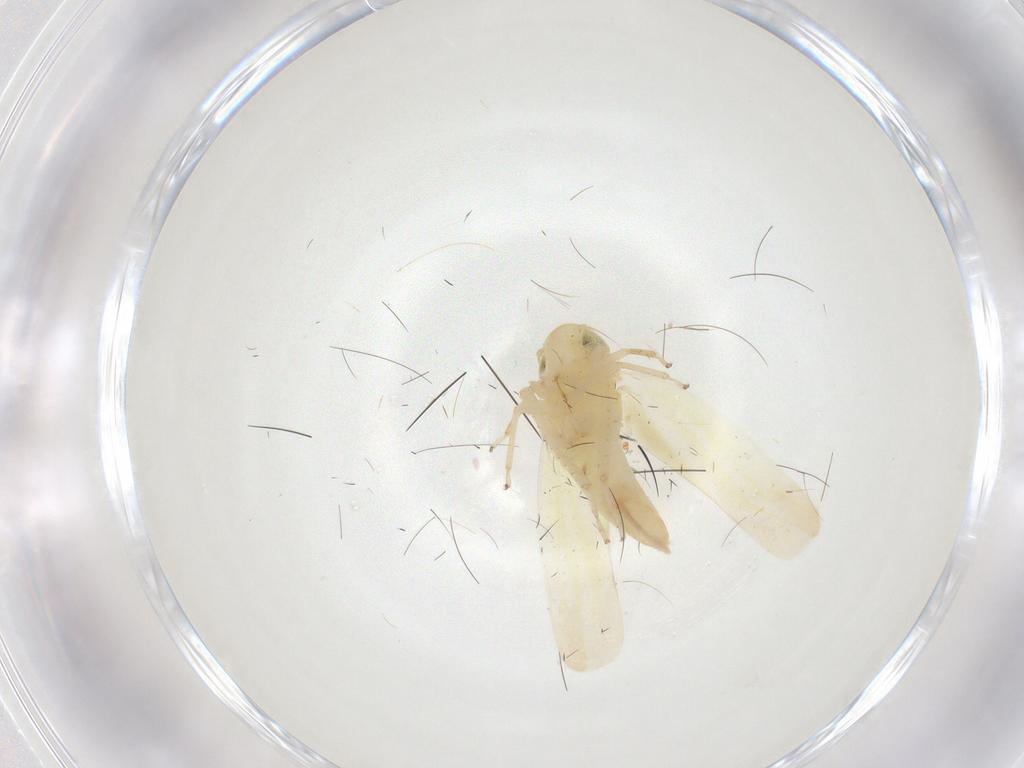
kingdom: Animalia
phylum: Arthropoda
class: Insecta
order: Hemiptera
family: Cicadellidae
